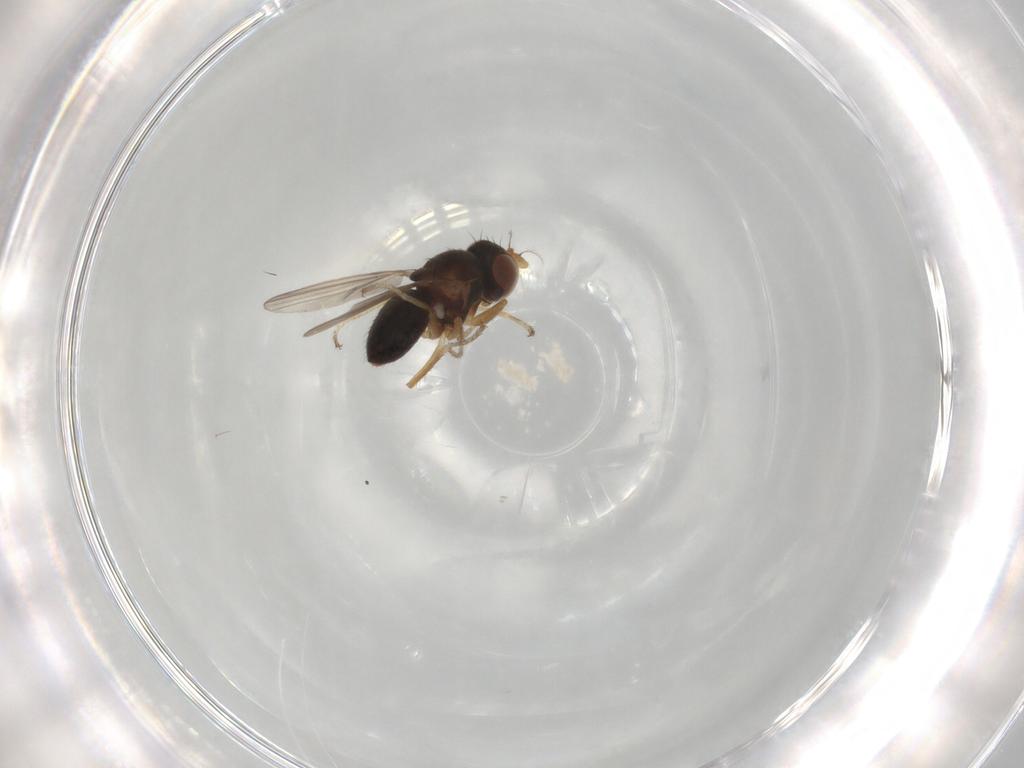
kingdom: Animalia
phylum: Arthropoda
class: Insecta
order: Diptera
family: Ephydridae
